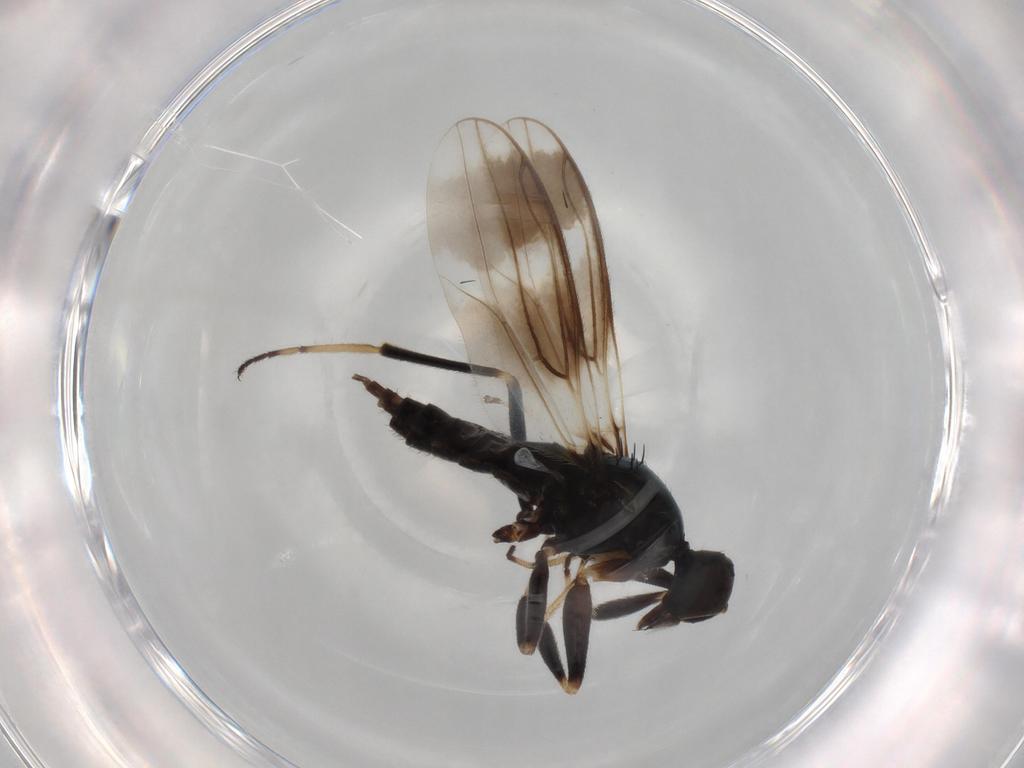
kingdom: Animalia
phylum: Arthropoda
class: Insecta
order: Diptera
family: Hybotidae
